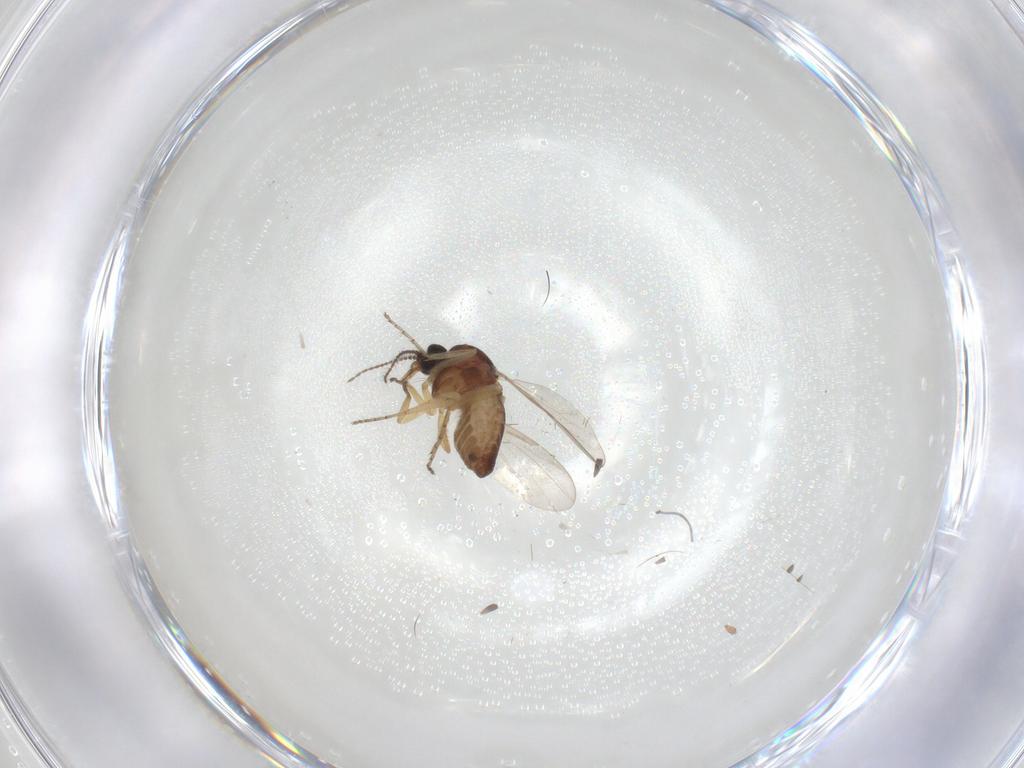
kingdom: Animalia
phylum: Arthropoda
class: Insecta
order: Diptera
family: Ceratopogonidae
